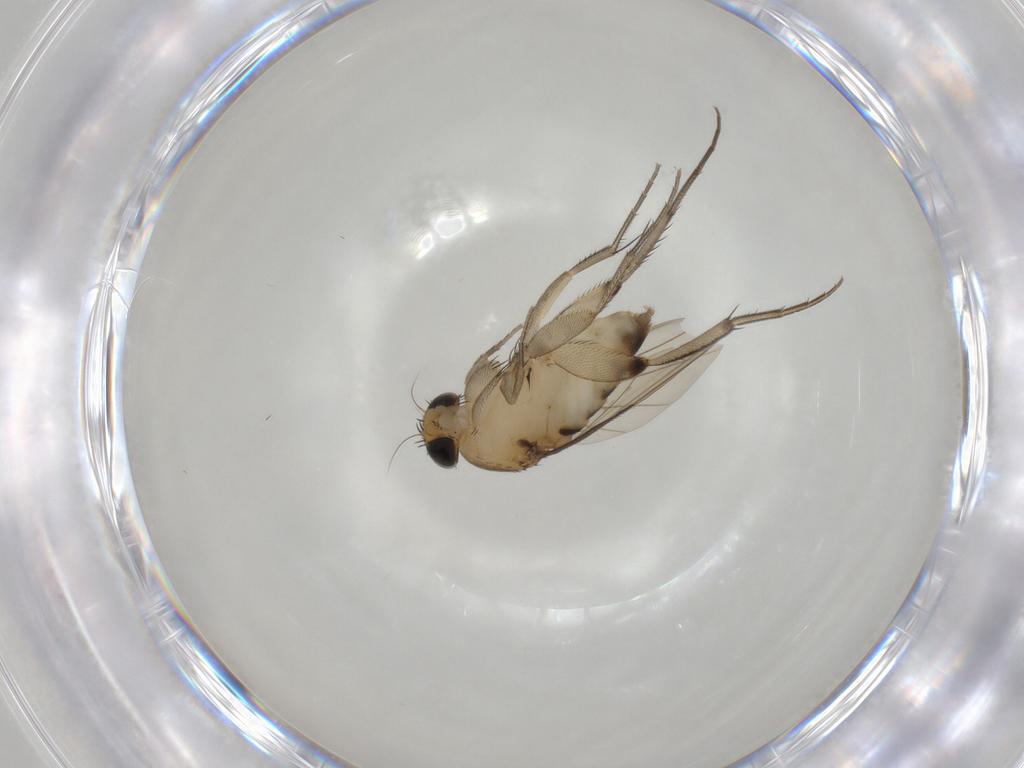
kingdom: Animalia
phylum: Arthropoda
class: Insecta
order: Diptera
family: Phoridae
